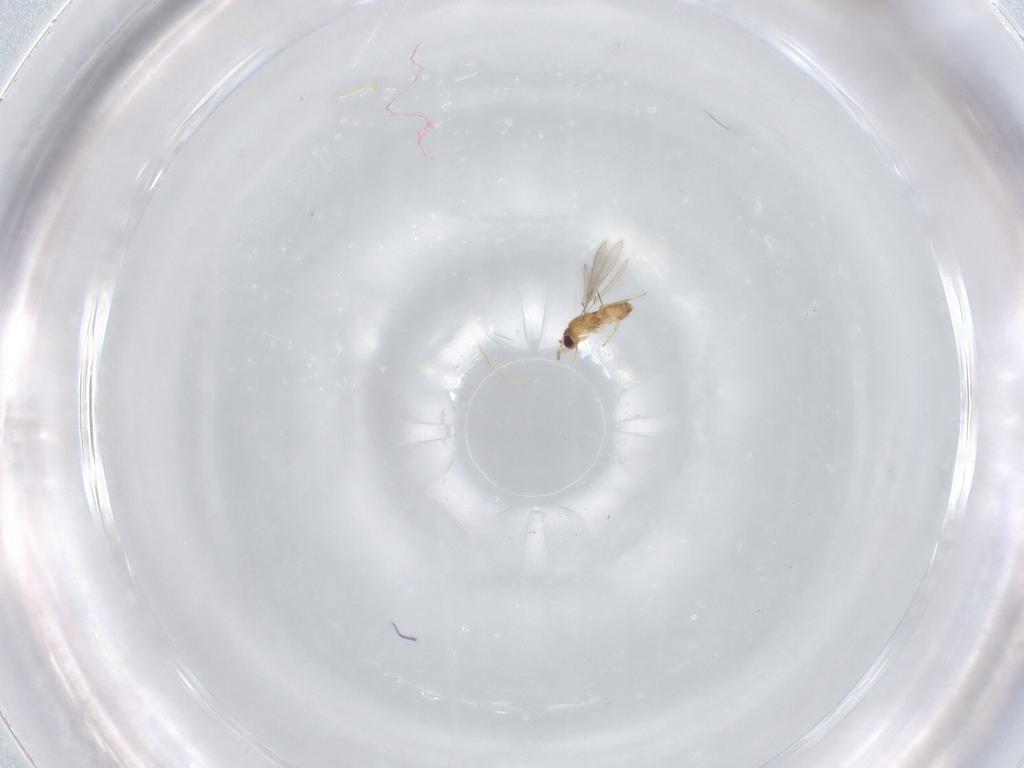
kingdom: Animalia
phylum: Arthropoda
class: Insecta
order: Hymenoptera
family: Mymaridae
